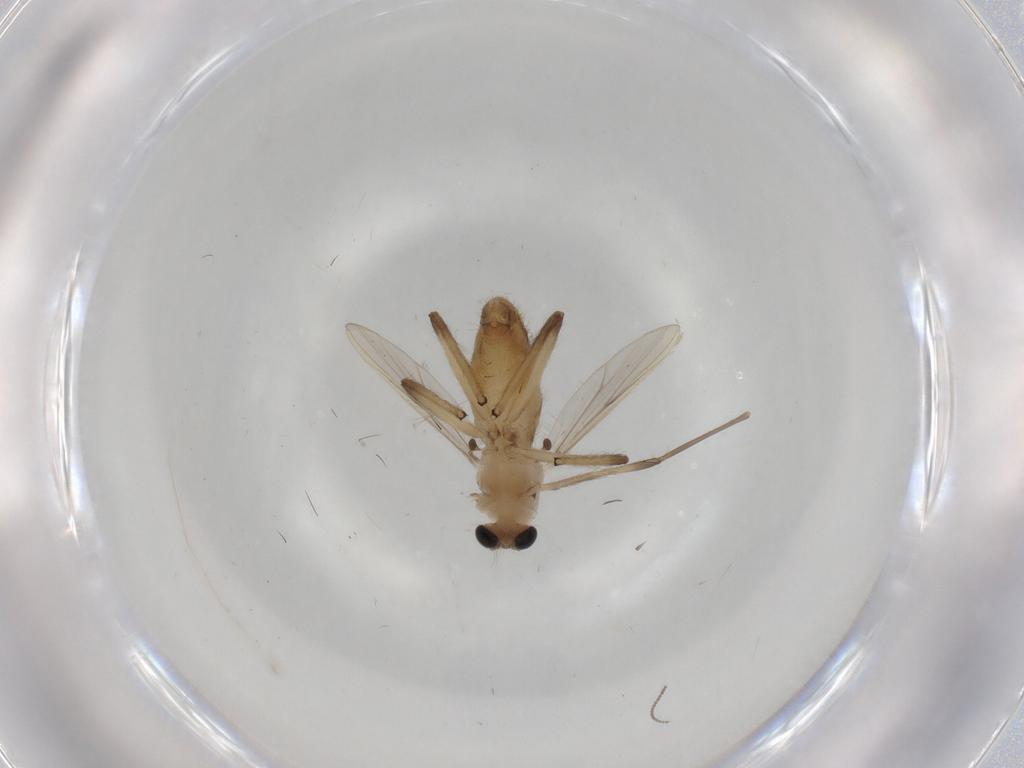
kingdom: Animalia
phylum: Arthropoda
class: Insecta
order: Diptera
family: Chironomidae
